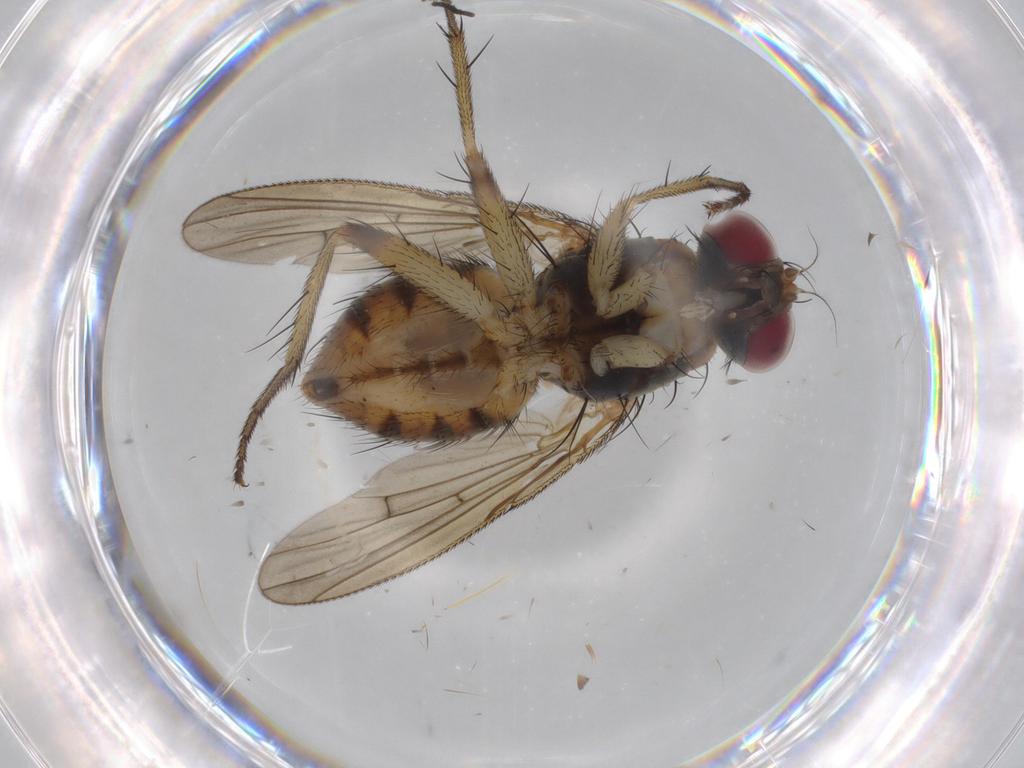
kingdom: Animalia
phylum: Arthropoda
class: Insecta
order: Diptera
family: Muscidae
